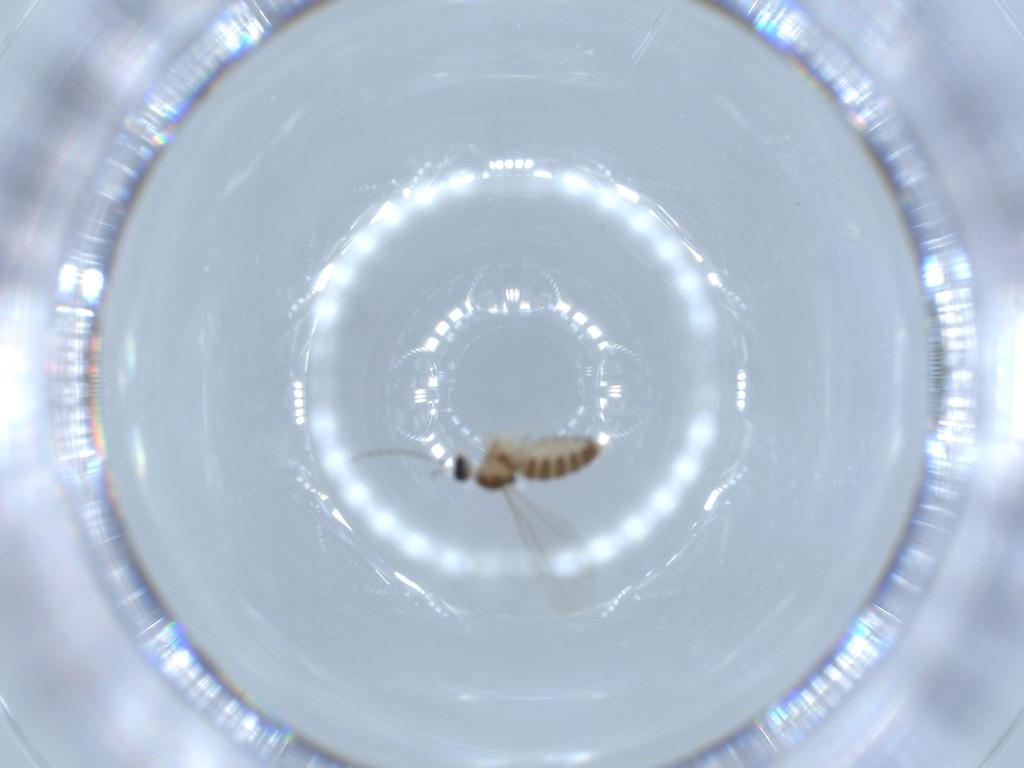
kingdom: Animalia
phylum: Arthropoda
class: Insecta
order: Diptera
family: Cecidomyiidae
